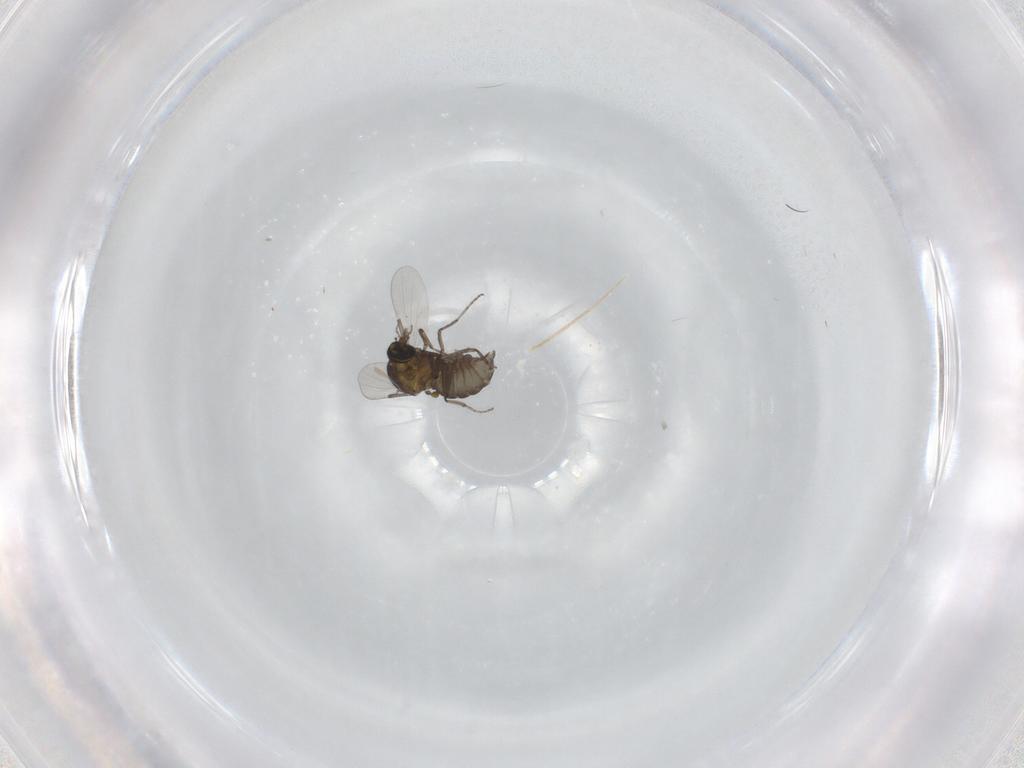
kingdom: Animalia
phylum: Arthropoda
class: Insecta
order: Diptera
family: Ceratopogonidae
